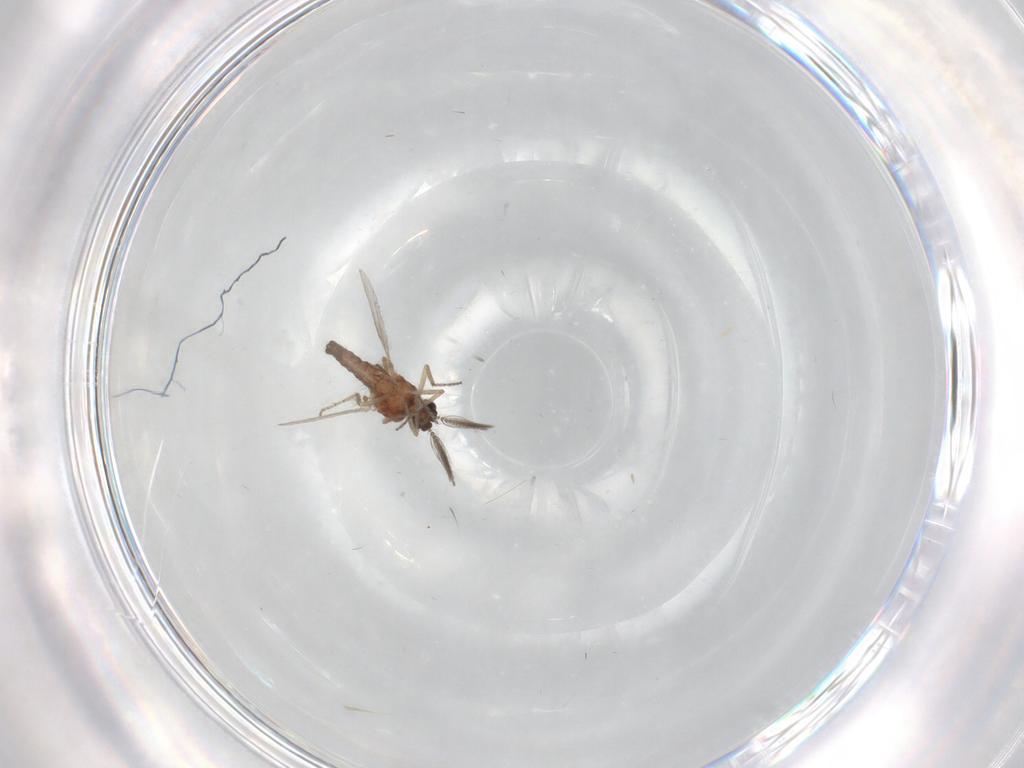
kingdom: Animalia
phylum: Arthropoda
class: Insecta
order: Diptera
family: Ceratopogonidae
